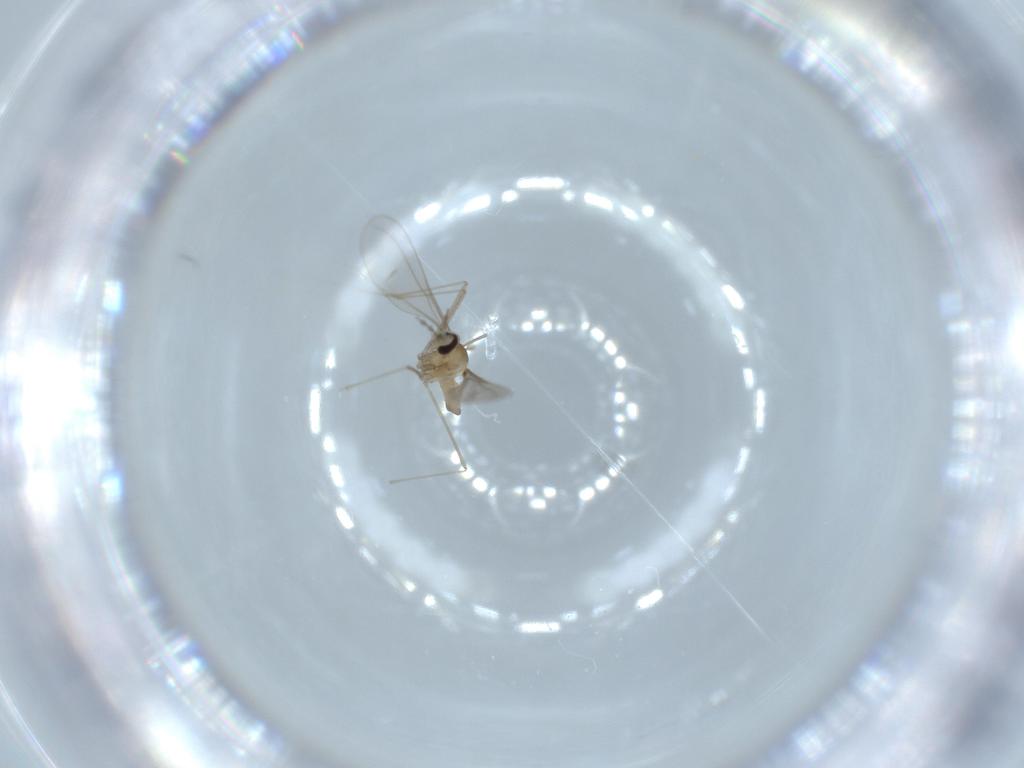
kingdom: Animalia
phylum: Arthropoda
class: Insecta
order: Diptera
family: Cecidomyiidae
